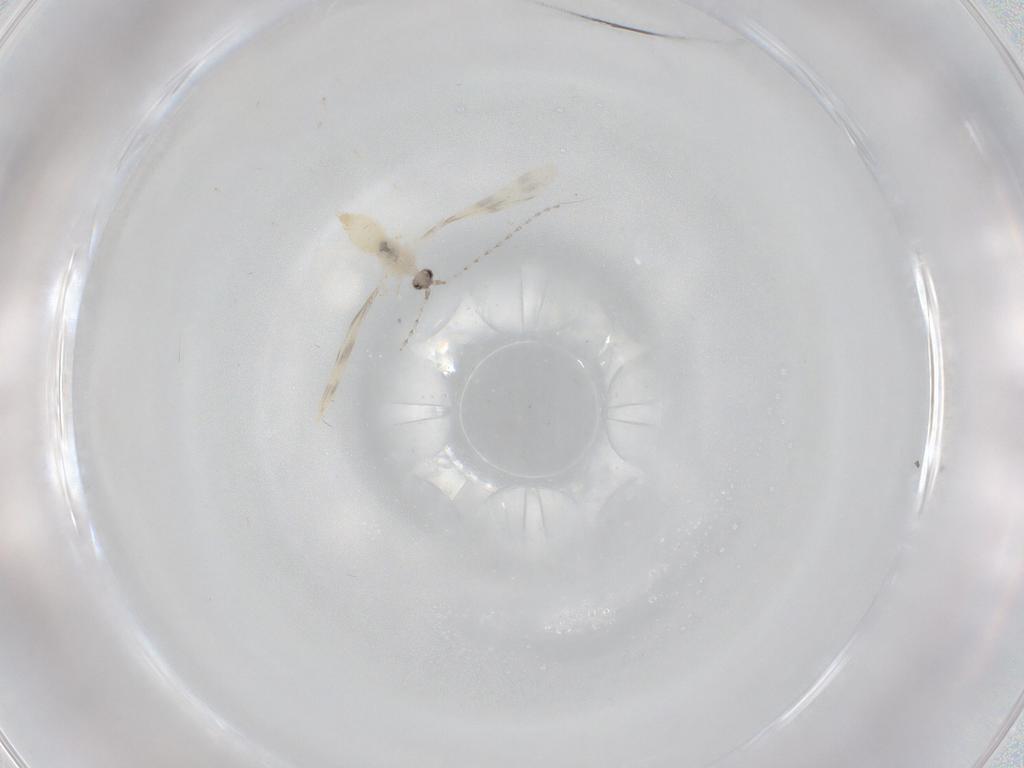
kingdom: Animalia
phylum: Arthropoda
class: Insecta
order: Diptera
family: Cecidomyiidae
